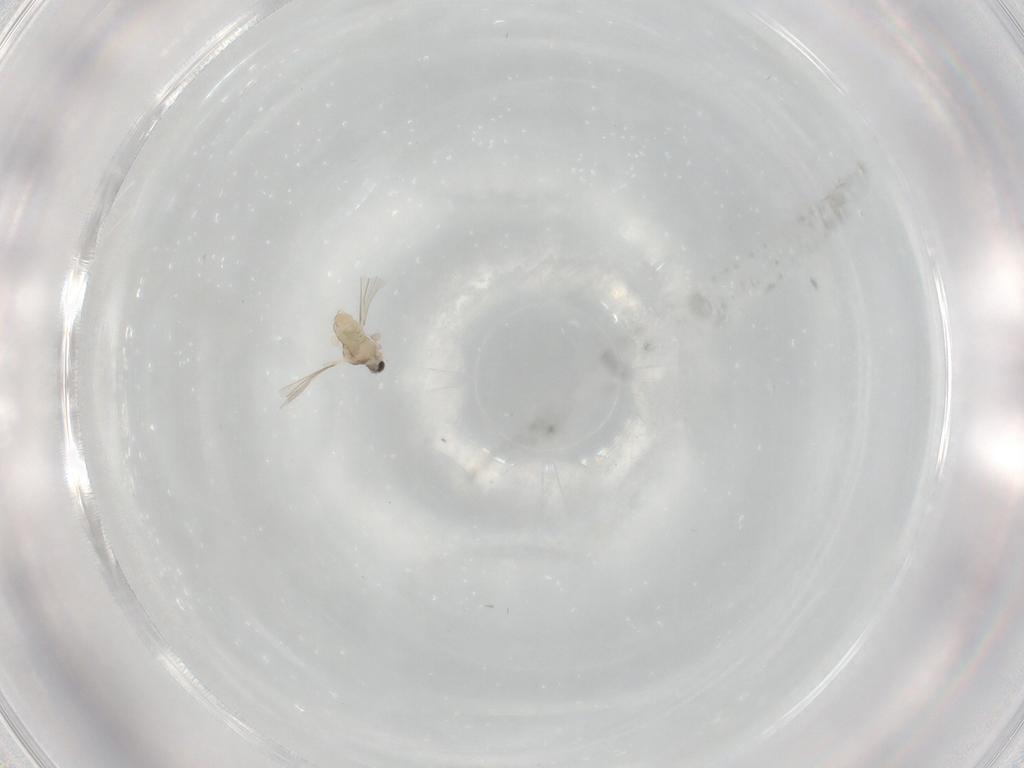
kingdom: Animalia
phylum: Arthropoda
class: Insecta
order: Diptera
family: Cecidomyiidae
